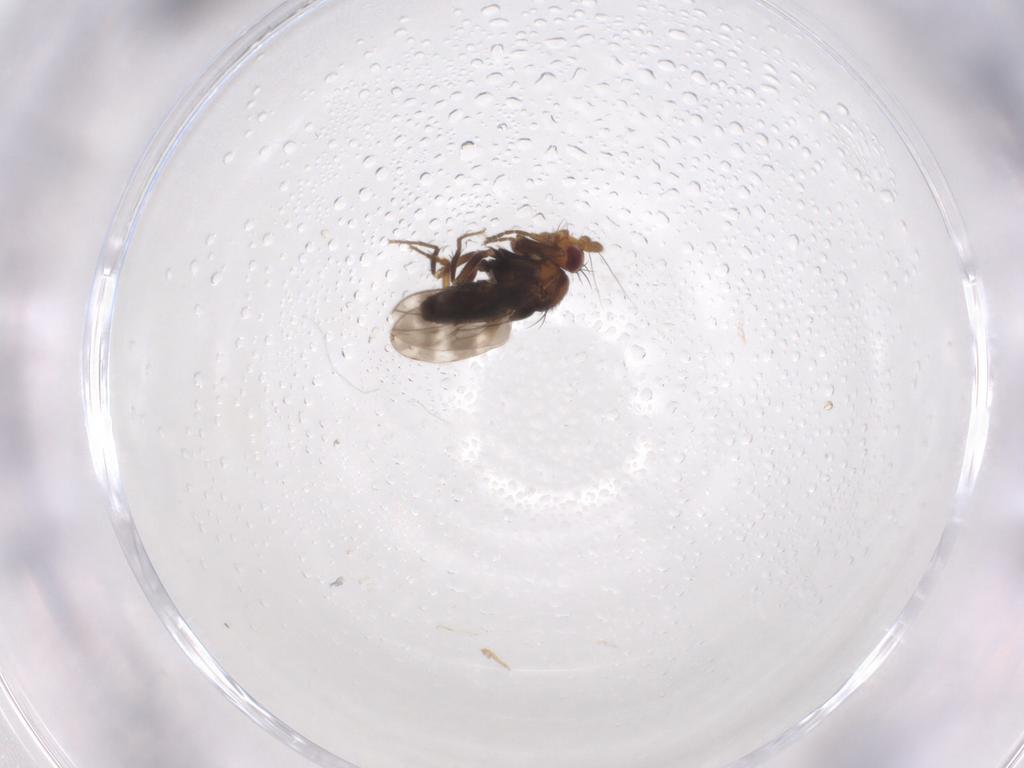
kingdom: Animalia
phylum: Arthropoda
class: Insecta
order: Diptera
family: Sphaeroceridae
